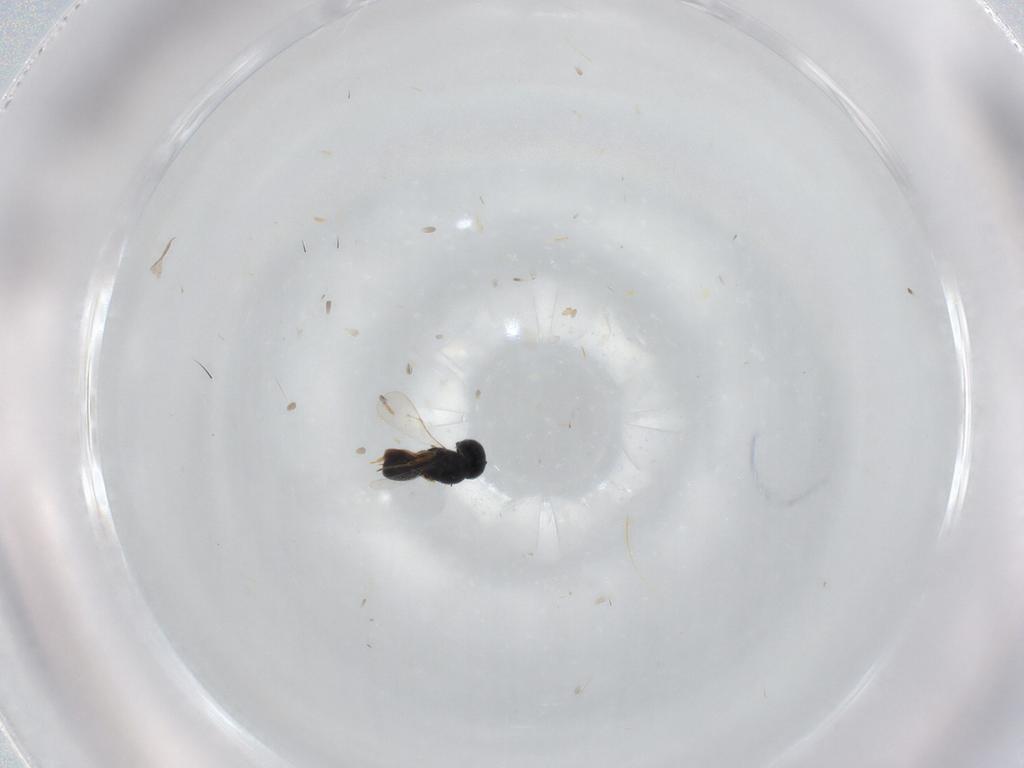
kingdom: Animalia
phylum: Arthropoda
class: Insecta
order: Hymenoptera
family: Scelionidae
